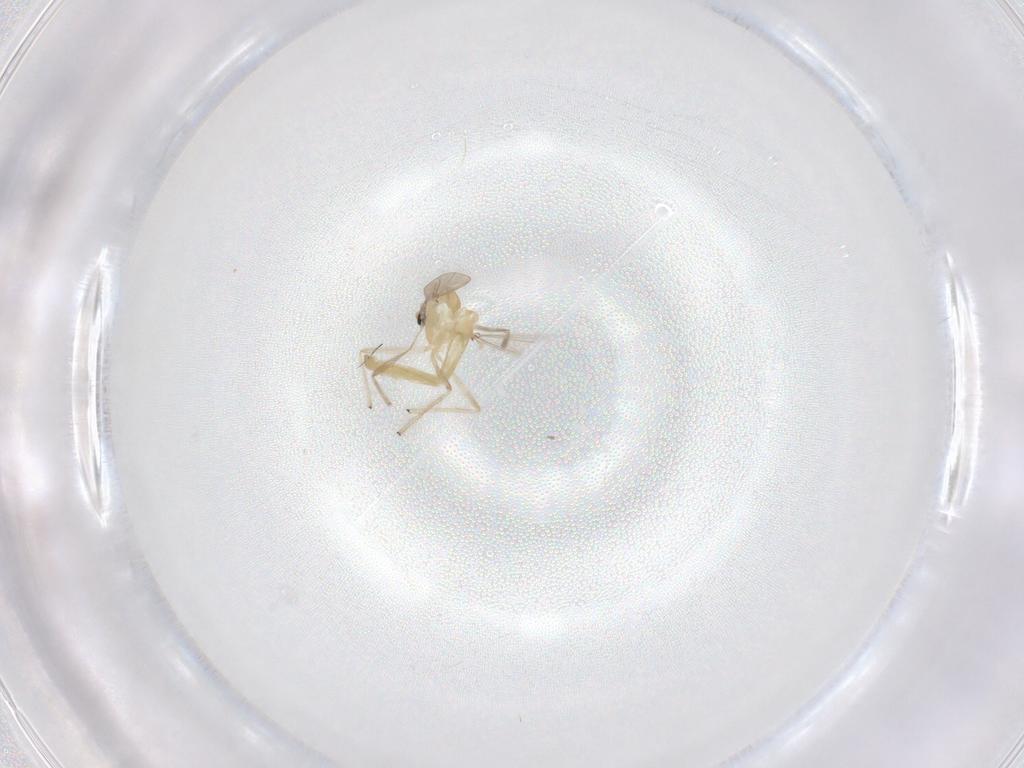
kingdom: Animalia
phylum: Arthropoda
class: Insecta
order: Diptera
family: Chironomidae
